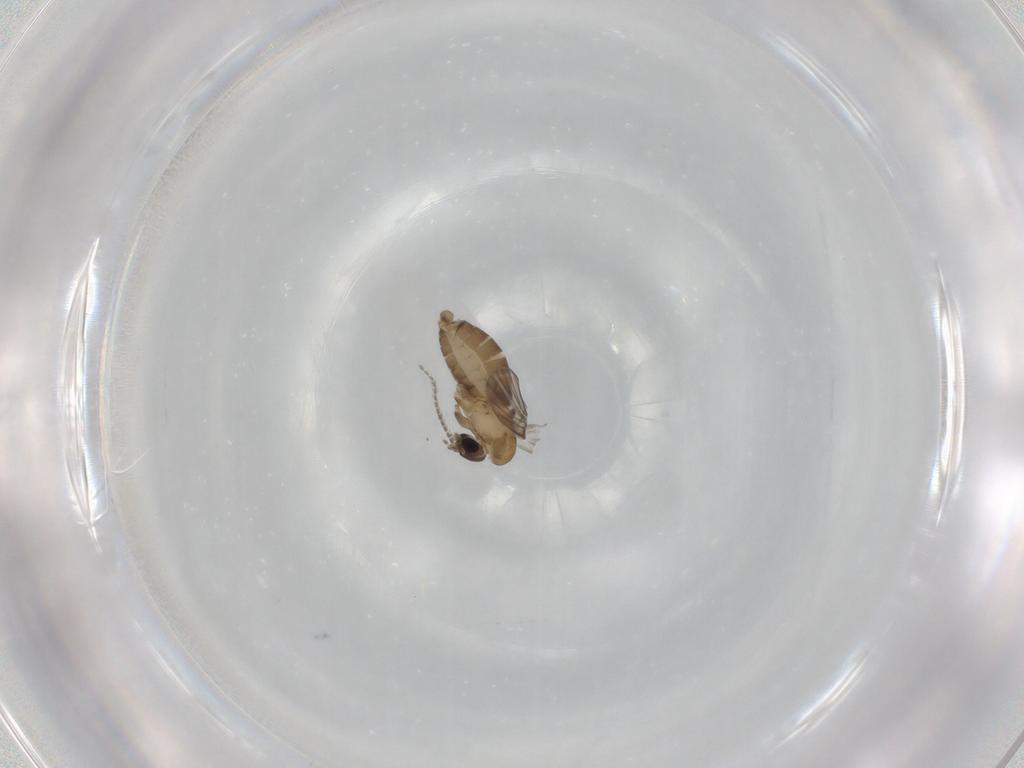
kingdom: Animalia
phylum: Arthropoda
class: Insecta
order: Diptera
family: Psychodidae
